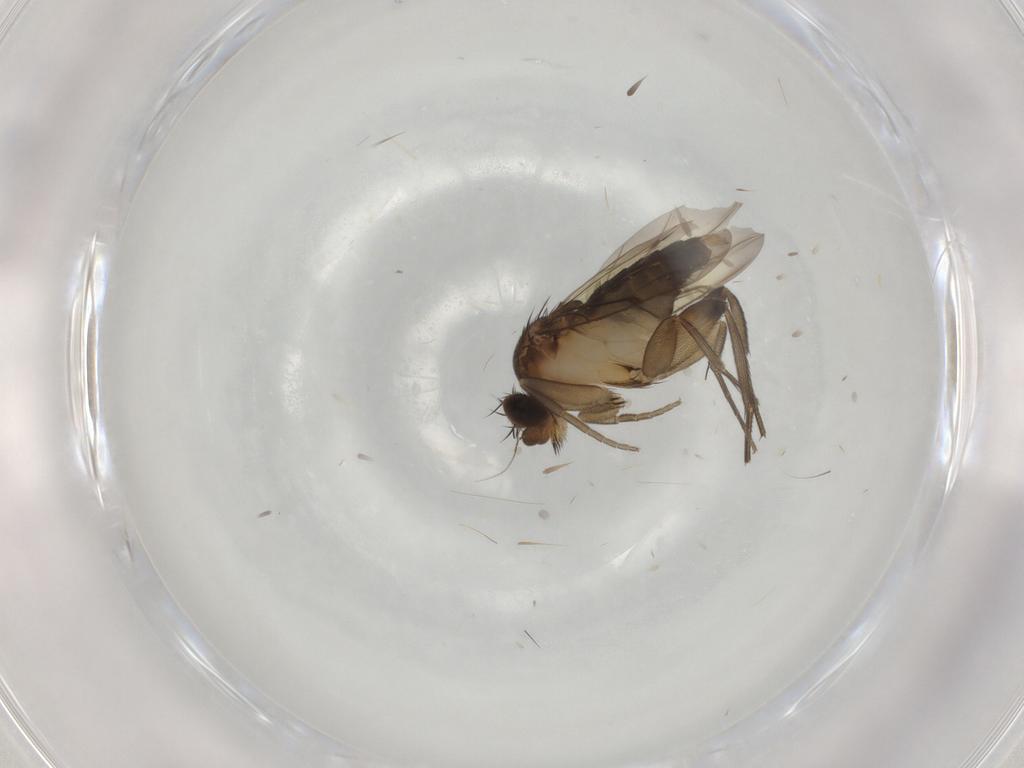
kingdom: Animalia
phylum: Arthropoda
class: Insecta
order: Diptera
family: Phoridae
